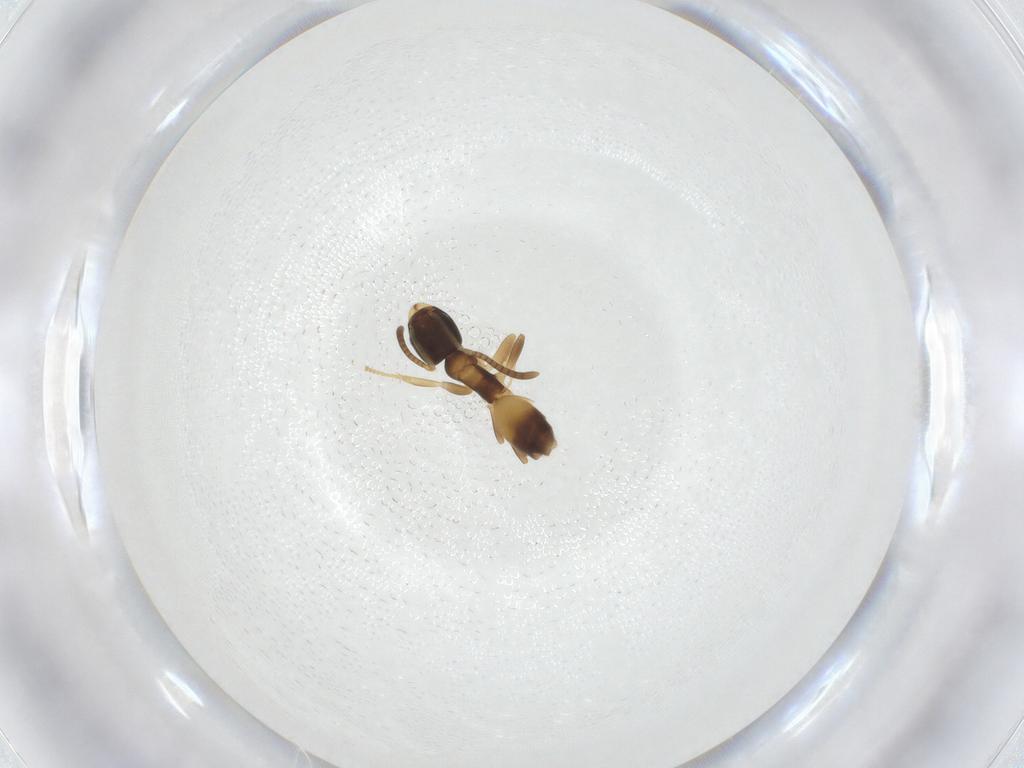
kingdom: Animalia
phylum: Arthropoda
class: Insecta
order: Hymenoptera
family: Formicidae
